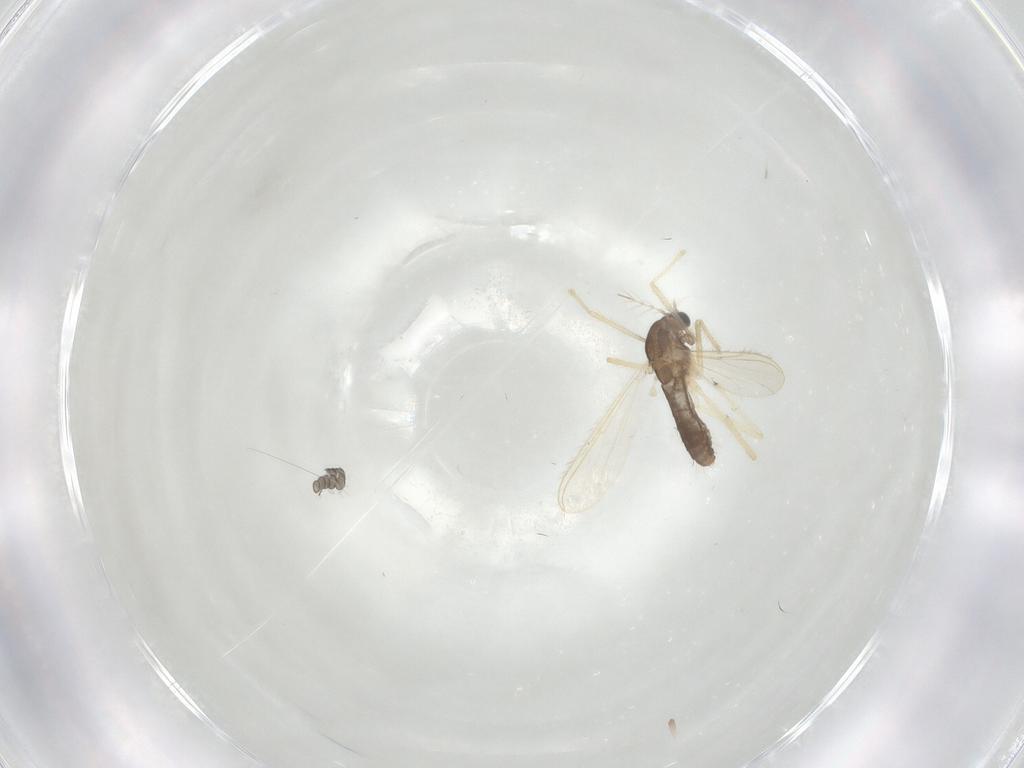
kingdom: Animalia
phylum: Arthropoda
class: Insecta
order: Diptera
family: Chironomidae
